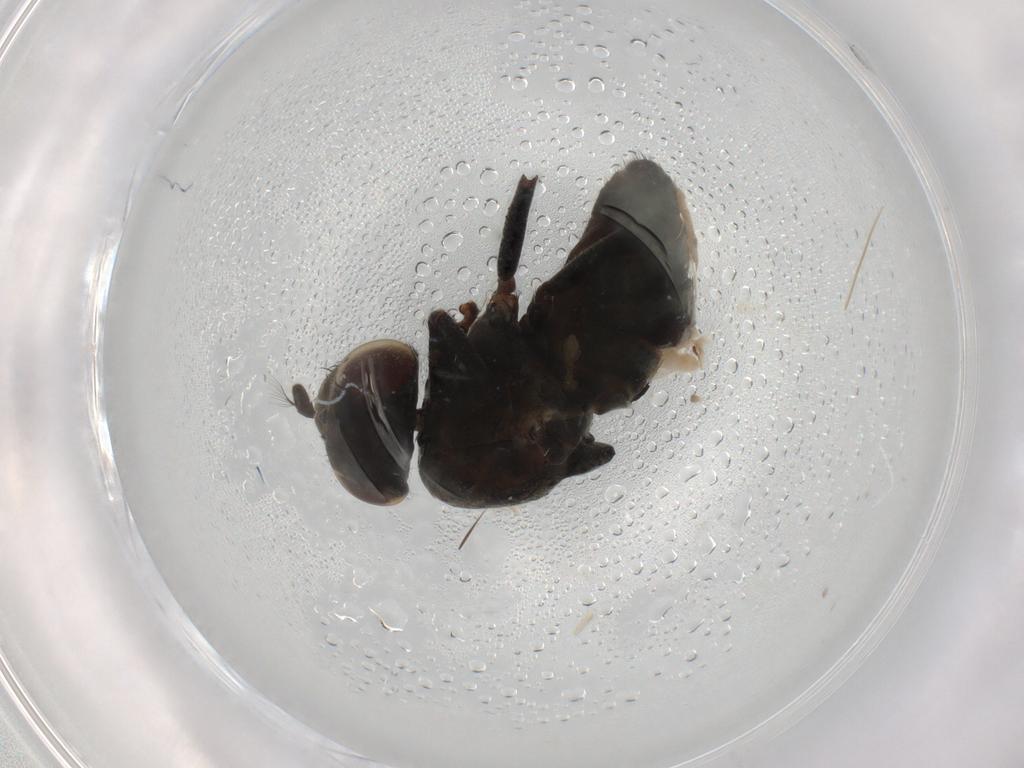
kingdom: Animalia
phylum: Arthropoda
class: Insecta
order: Diptera
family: Ephydridae
